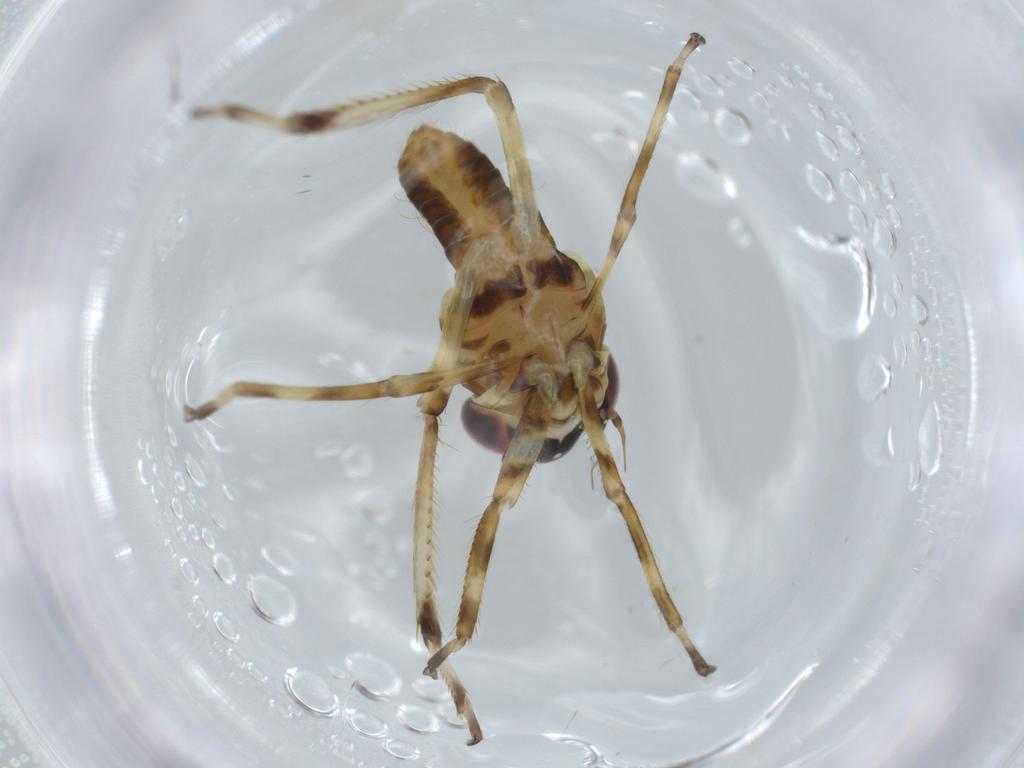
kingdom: Animalia
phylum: Arthropoda
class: Insecta
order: Hemiptera
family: Cicadellidae
